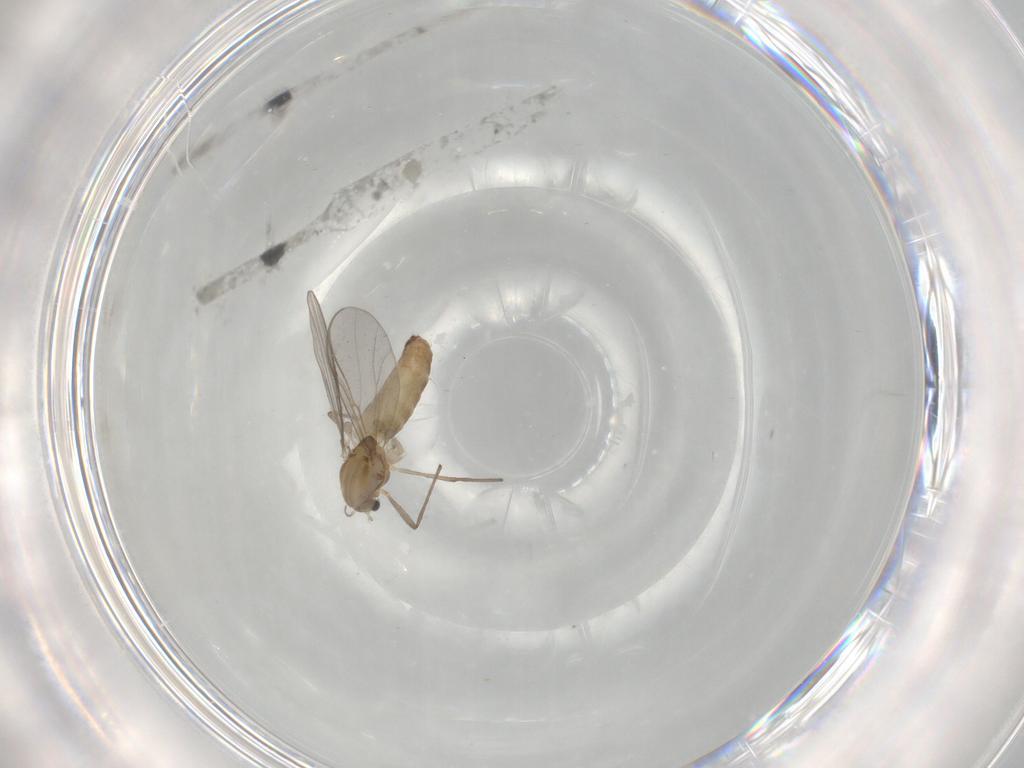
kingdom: Animalia
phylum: Arthropoda
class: Insecta
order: Diptera
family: Chironomidae
